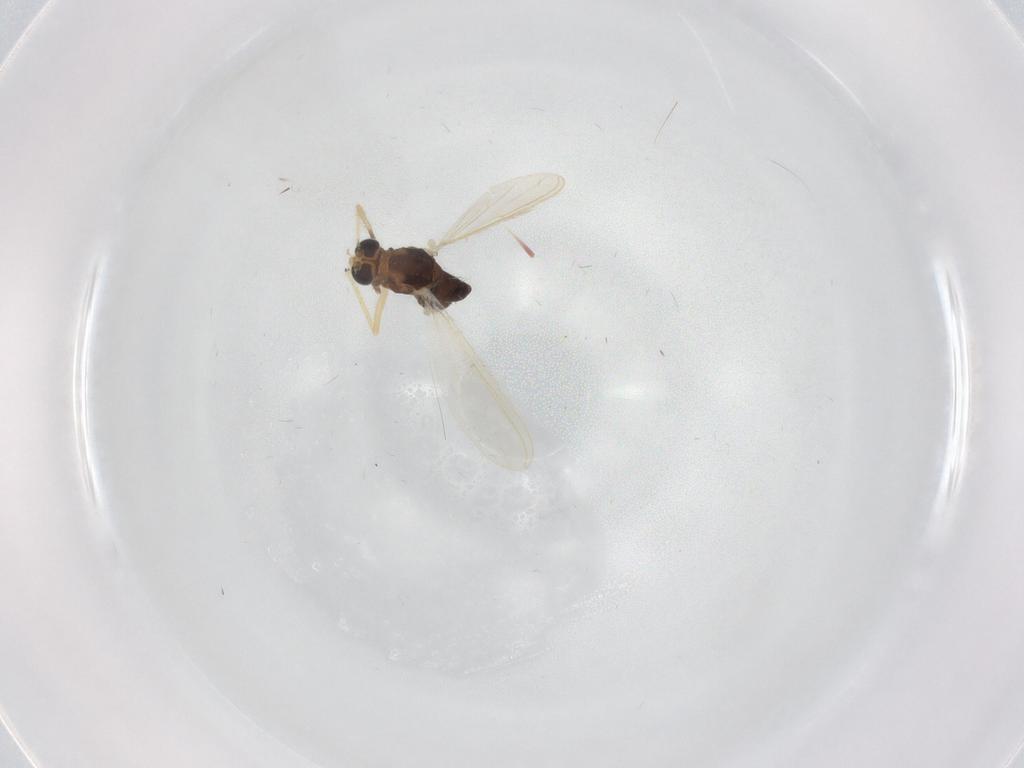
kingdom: Animalia
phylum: Arthropoda
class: Insecta
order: Diptera
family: Chironomidae
